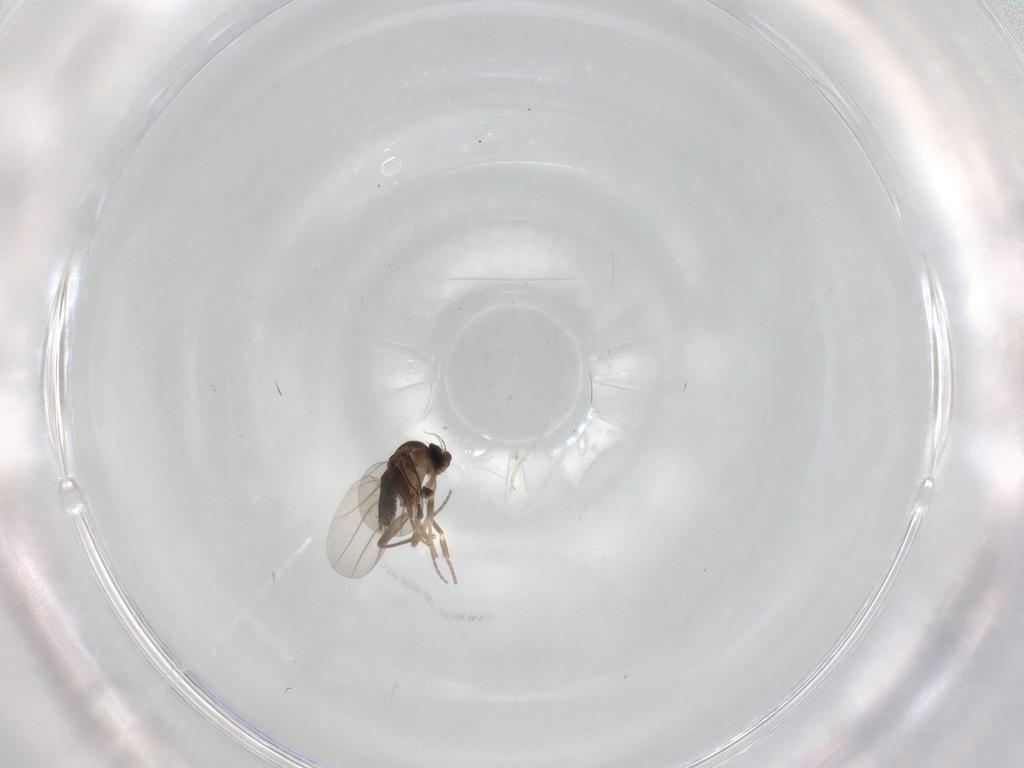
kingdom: Animalia
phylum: Arthropoda
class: Insecta
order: Diptera
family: Phoridae
